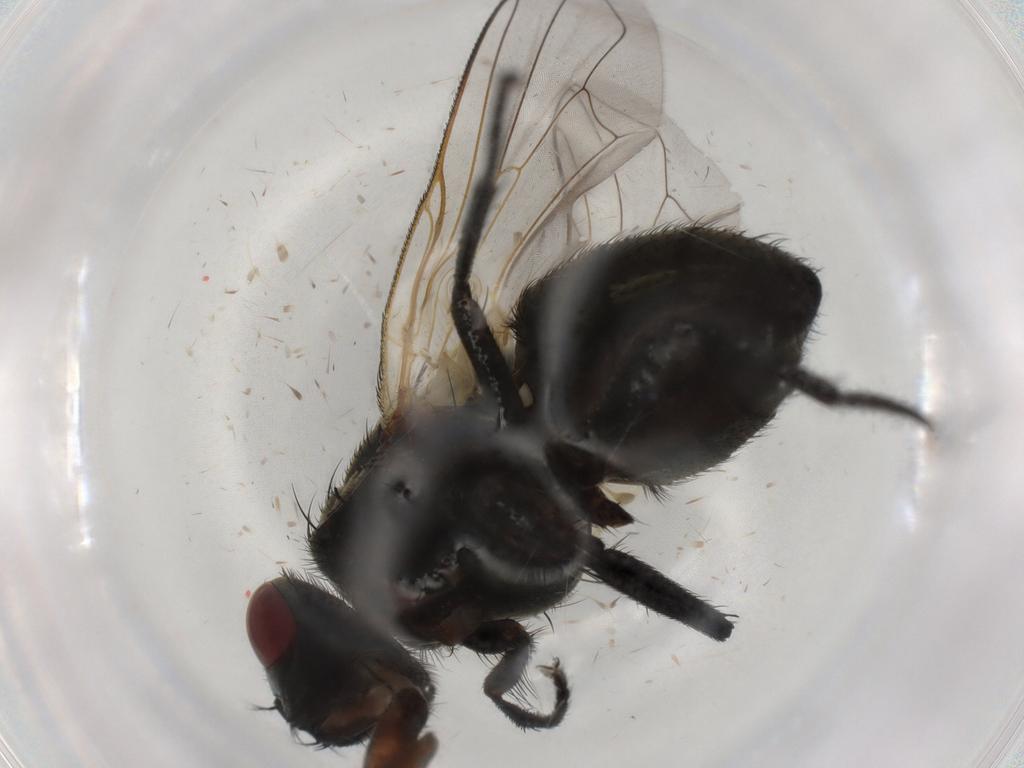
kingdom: Animalia
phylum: Arthropoda
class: Insecta
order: Diptera
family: Muscidae
